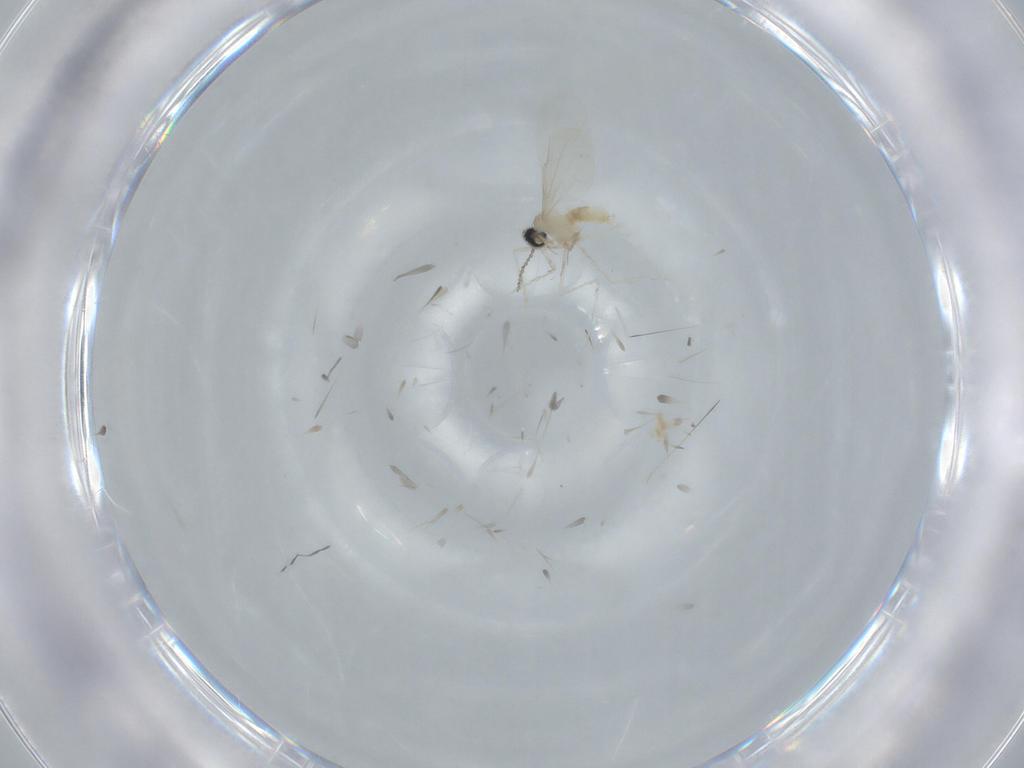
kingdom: Animalia
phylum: Arthropoda
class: Insecta
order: Diptera
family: Cecidomyiidae
